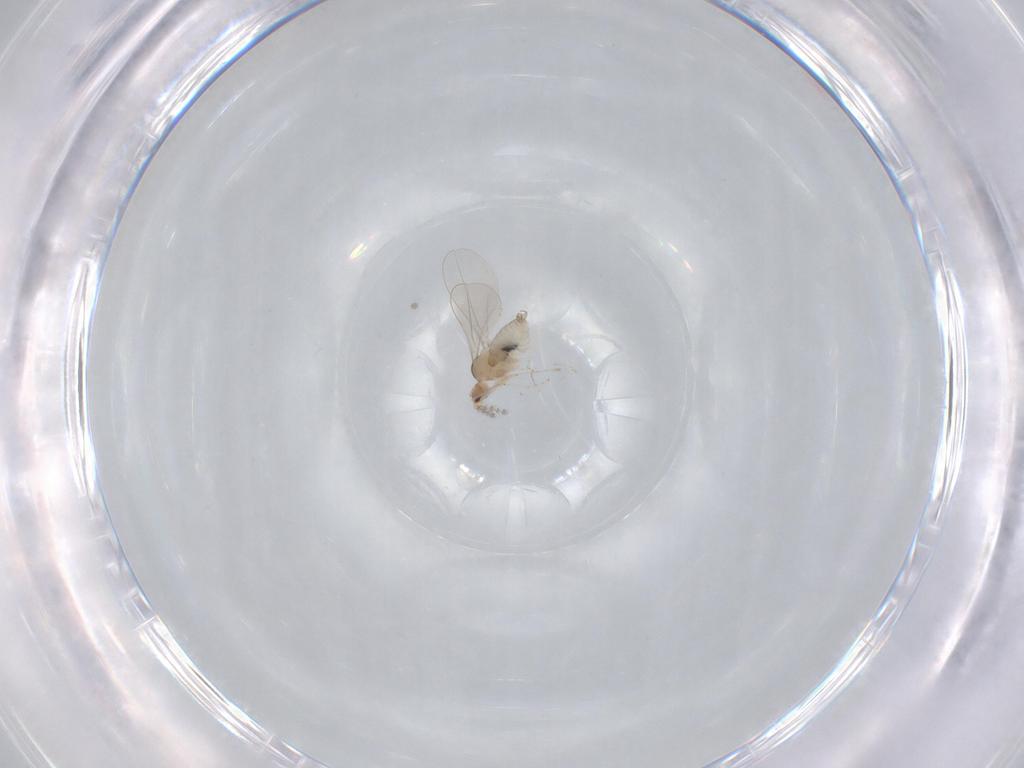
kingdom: Animalia
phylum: Arthropoda
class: Insecta
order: Diptera
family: Cecidomyiidae
